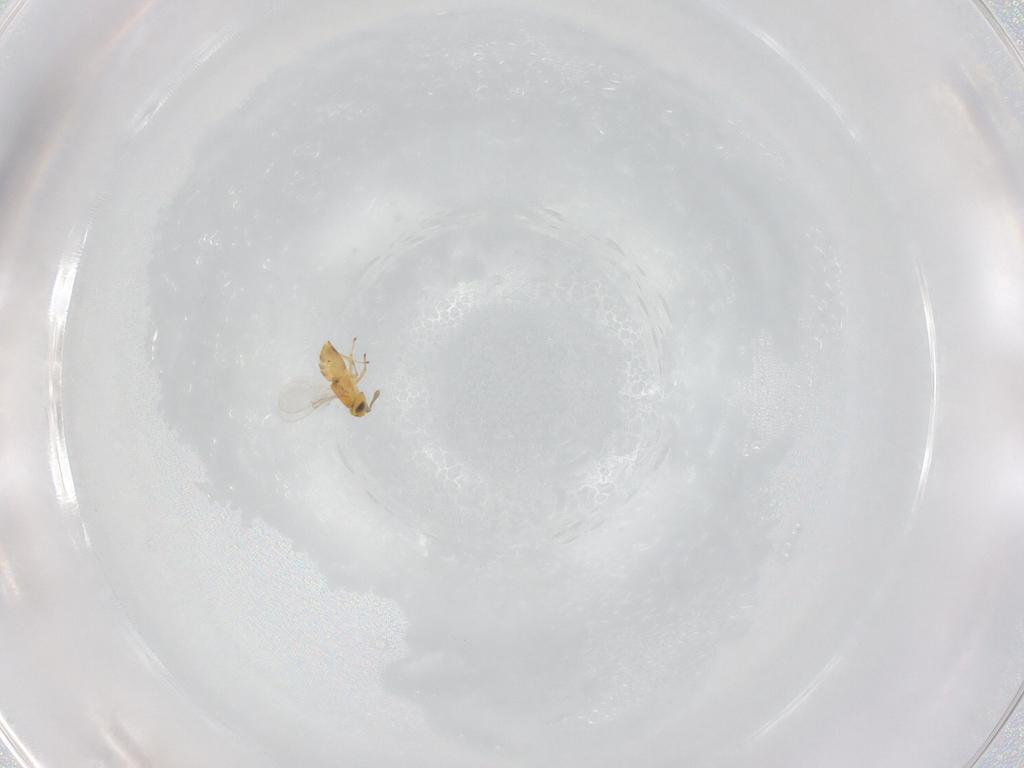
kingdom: Animalia
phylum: Arthropoda
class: Insecta
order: Hymenoptera
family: Encyrtidae
